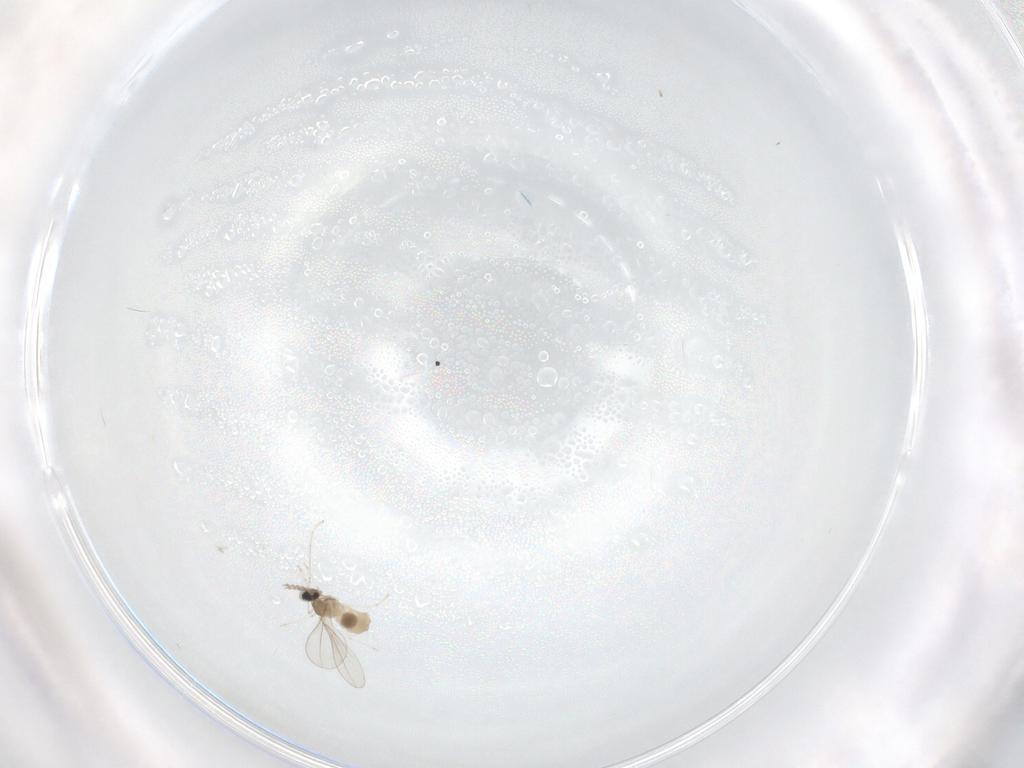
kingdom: Animalia
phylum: Arthropoda
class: Insecta
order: Diptera
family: Cecidomyiidae
